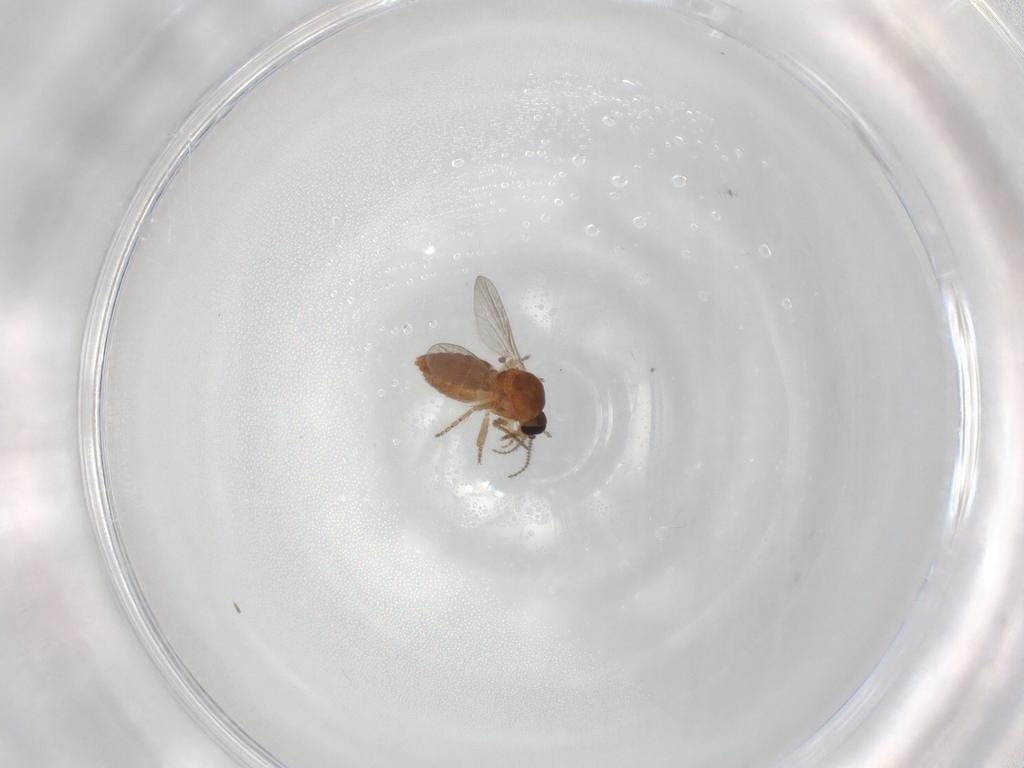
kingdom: Animalia
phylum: Arthropoda
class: Insecta
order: Diptera
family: Ceratopogonidae
